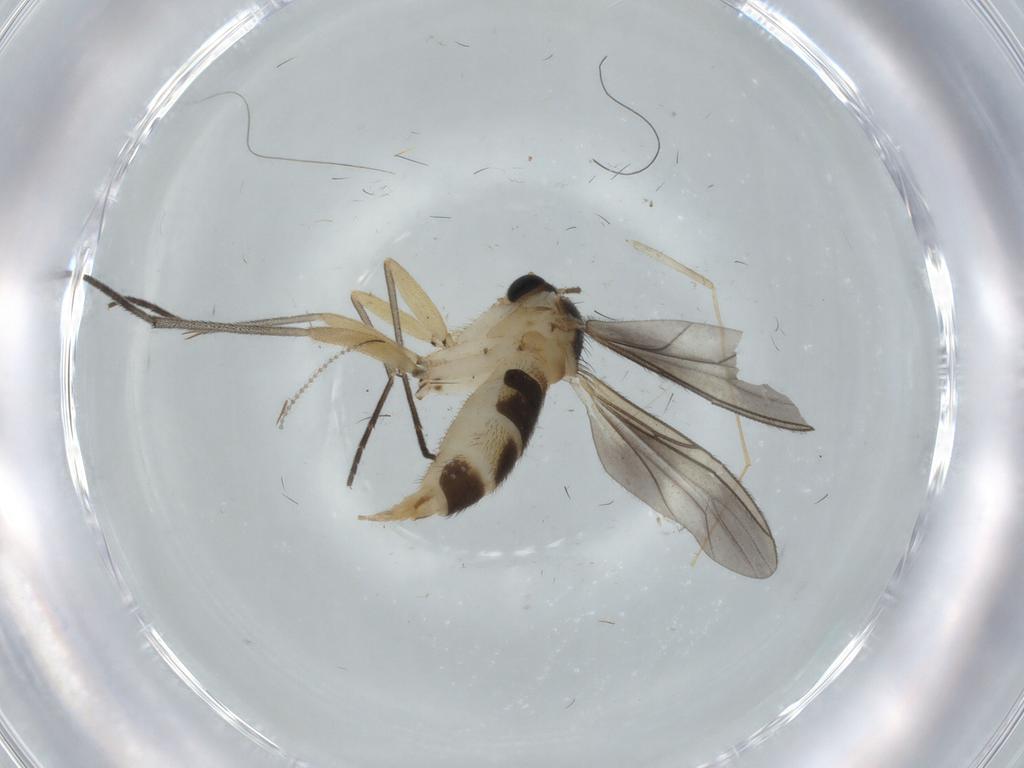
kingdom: Animalia
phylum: Arthropoda
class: Insecta
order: Diptera
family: Sciaridae
